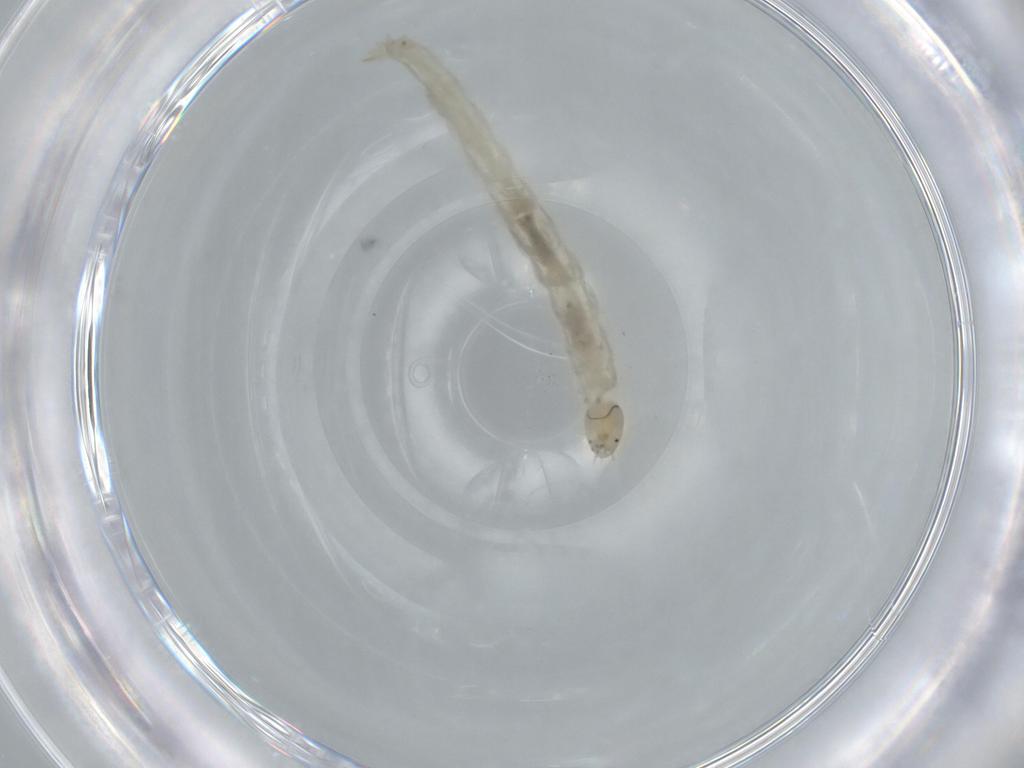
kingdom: Animalia
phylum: Arthropoda
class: Insecta
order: Diptera
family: Chironomidae
